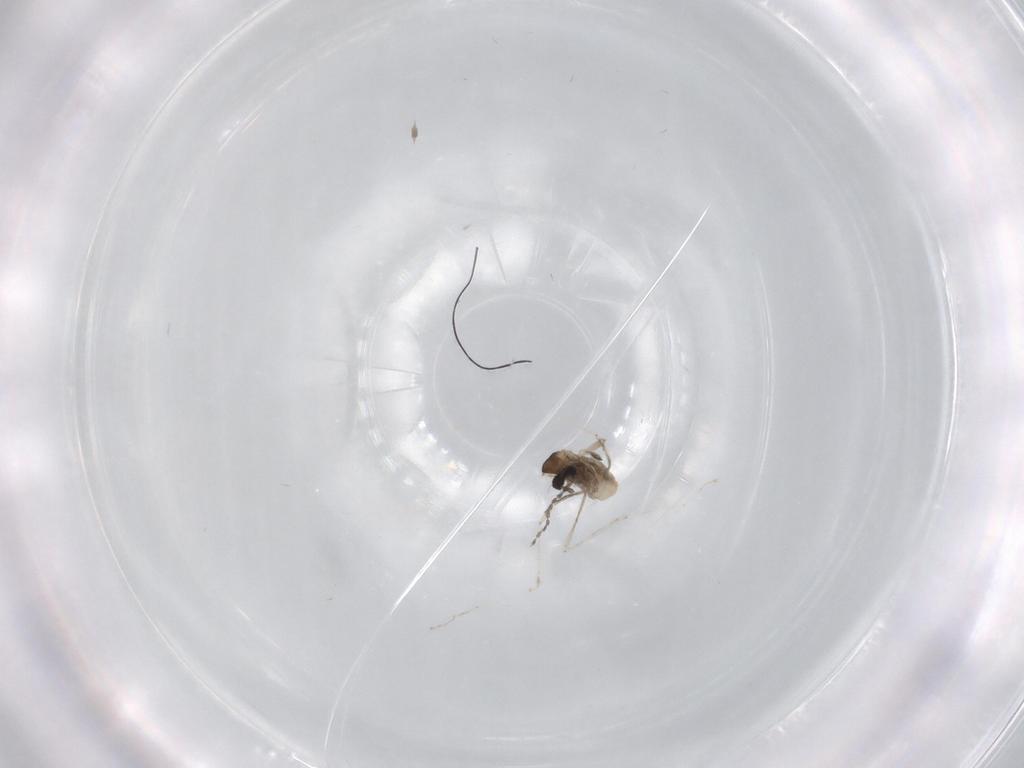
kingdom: Animalia
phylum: Arthropoda
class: Insecta
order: Diptera
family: Cecidomyiidae
